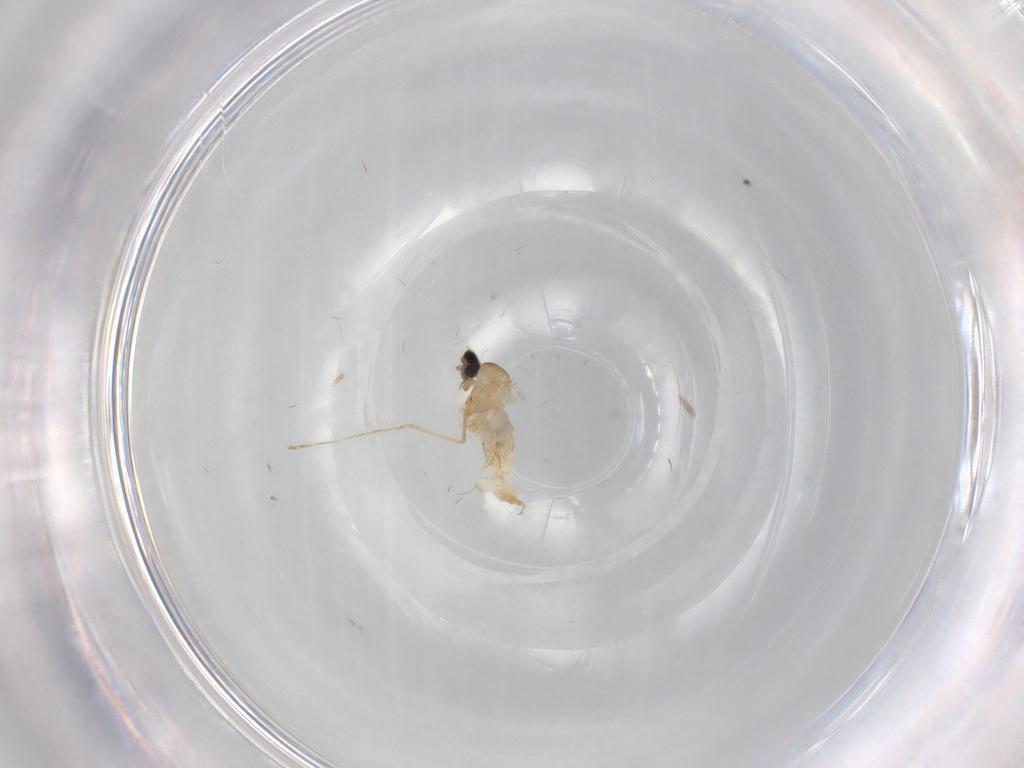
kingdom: Animalia
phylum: Arthropoda
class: Insecta
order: Diptera
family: Cecidomyiidae
